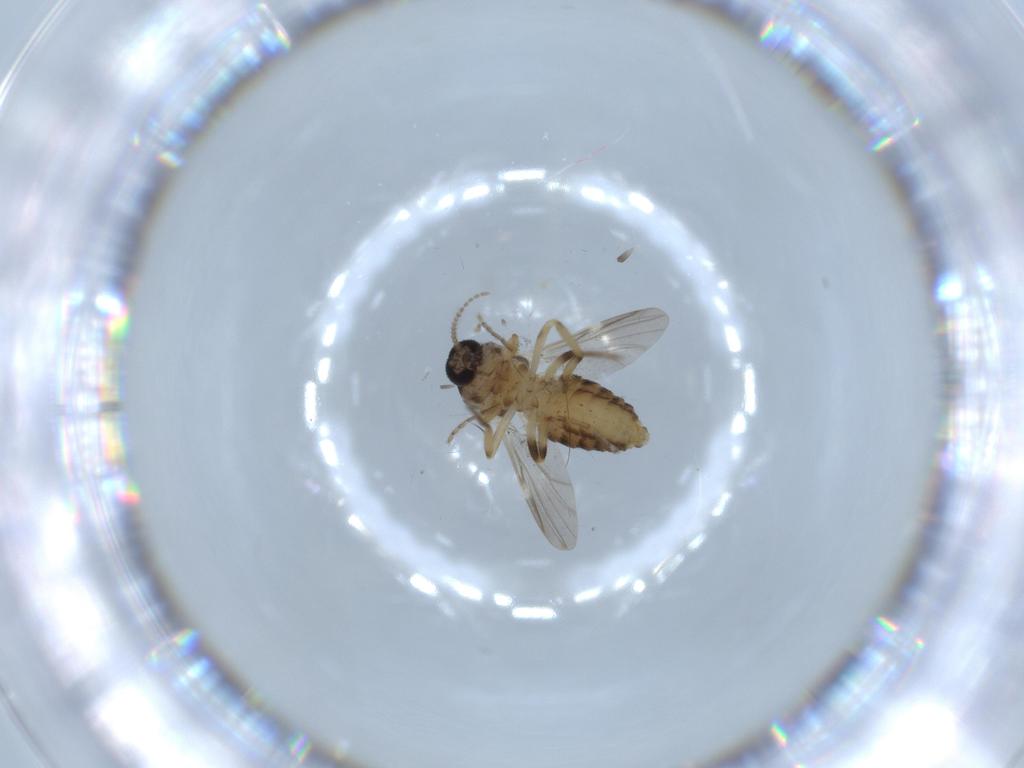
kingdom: Animalia
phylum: Arthropoda
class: Insecta
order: Diptera
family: Ceratopogonidae
